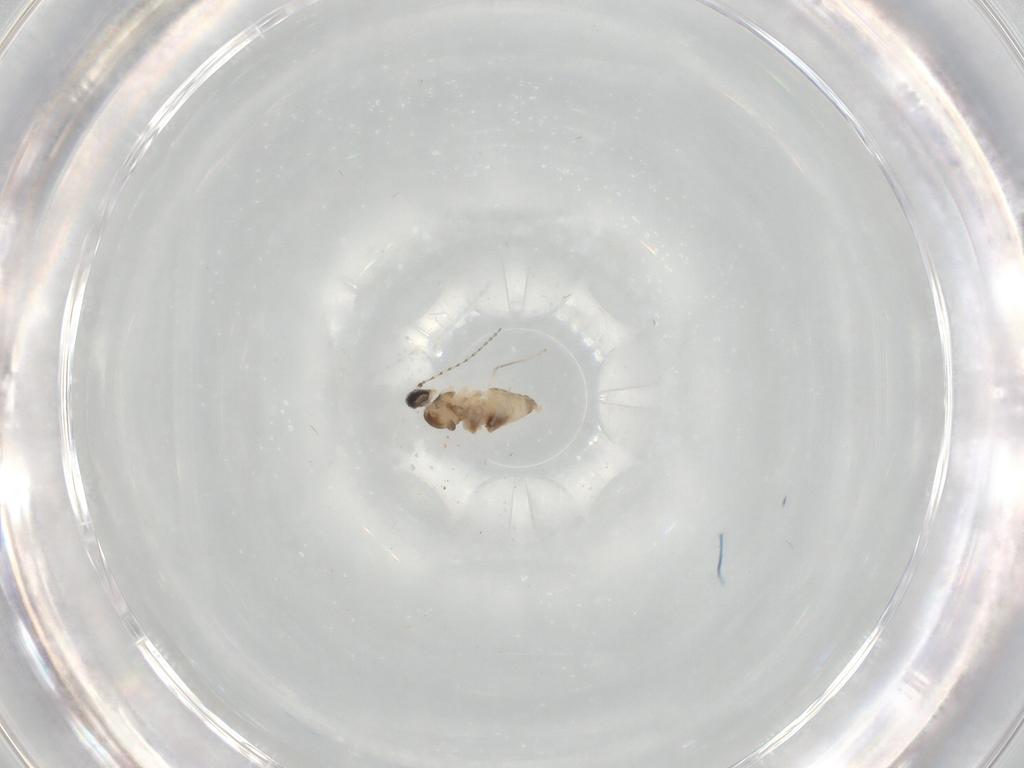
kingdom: Animalia
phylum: Arthropoda
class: Insecta
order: Diptera
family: Cecidomyiidae
